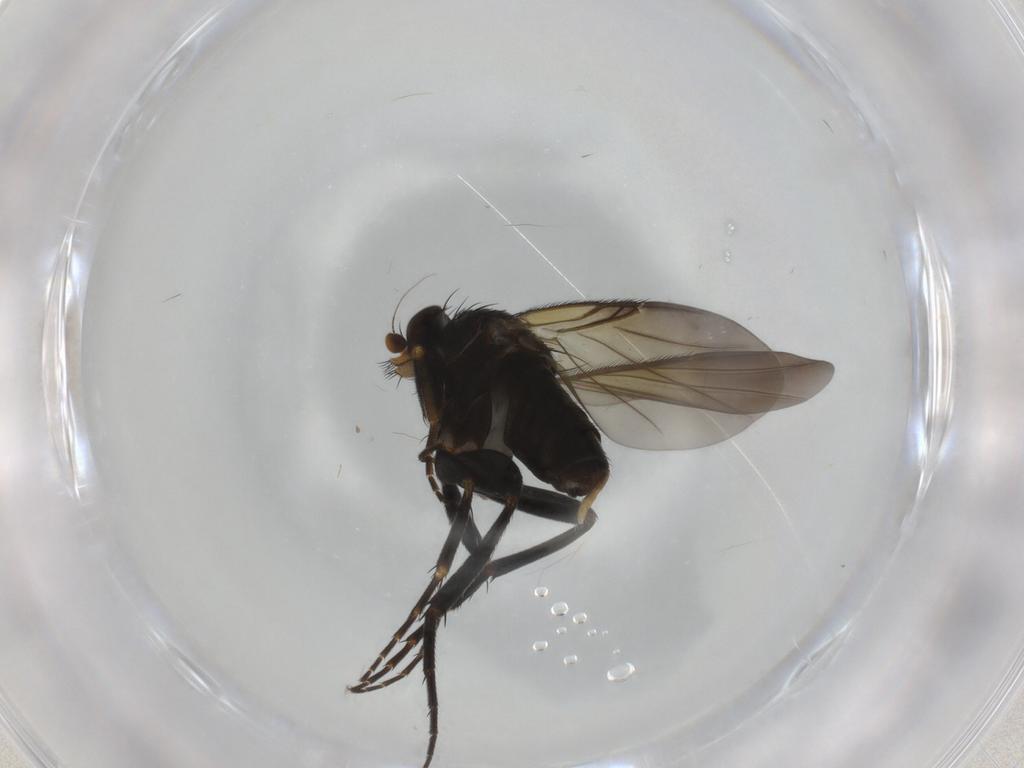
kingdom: Animalia
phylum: Arthropoda
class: Insecta
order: Diptera
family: Phoridae
